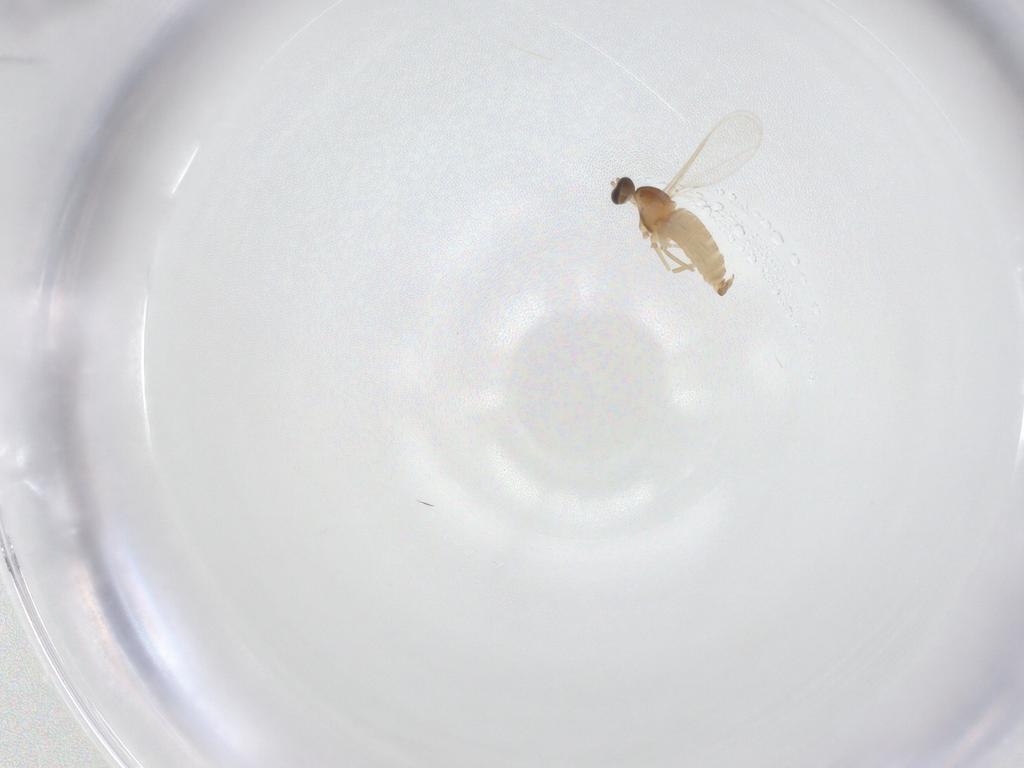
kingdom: Animalia
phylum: Arthropoda
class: Insecta
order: Diptera
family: Cecidomyiidae
